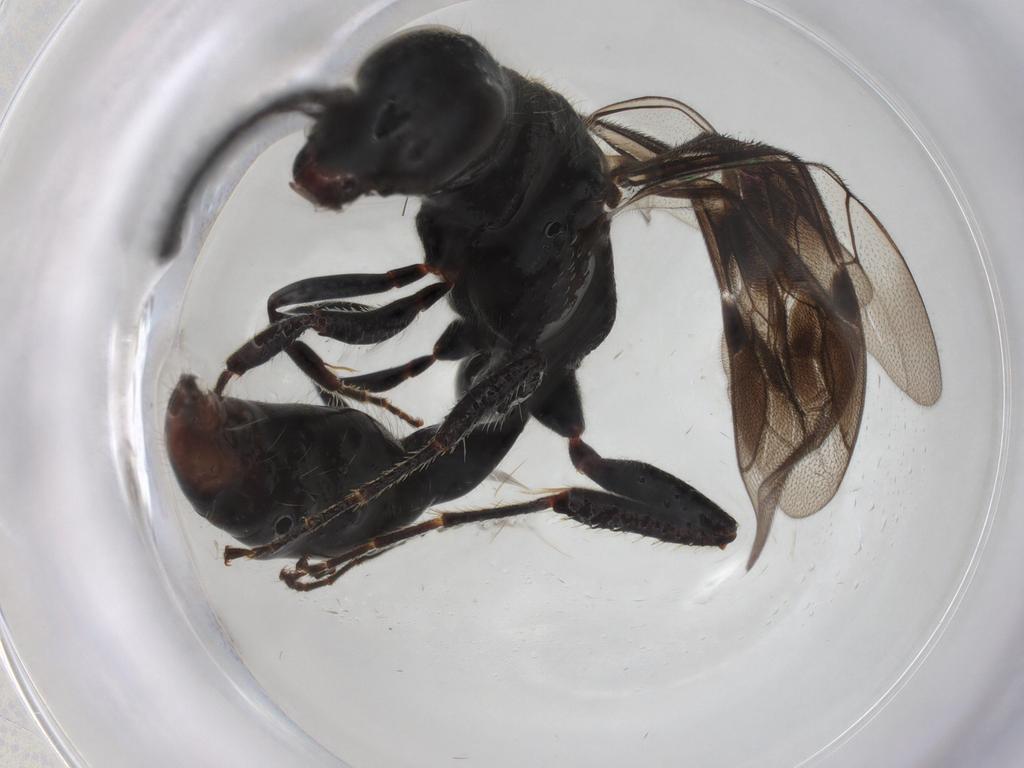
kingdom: Animalia
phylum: Arthropoda
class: Insecta
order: Hymenoptera
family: Thynnidae
